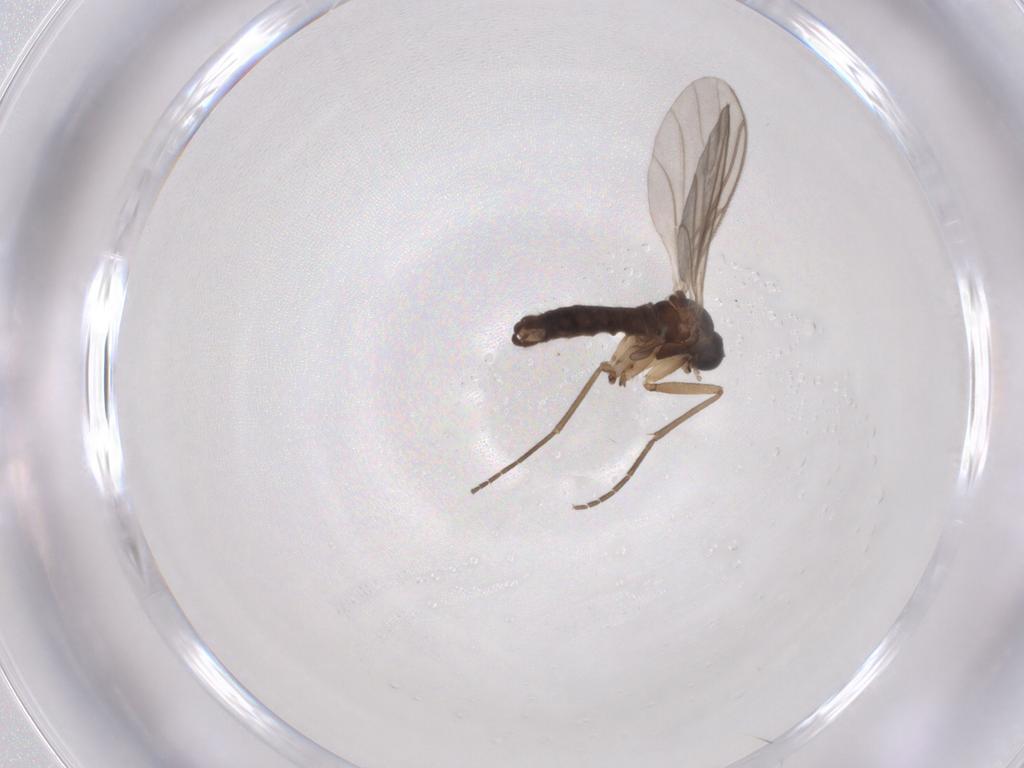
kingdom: Animalia
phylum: Arthropoda
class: Insecta
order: Diptera
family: Sciaridae
